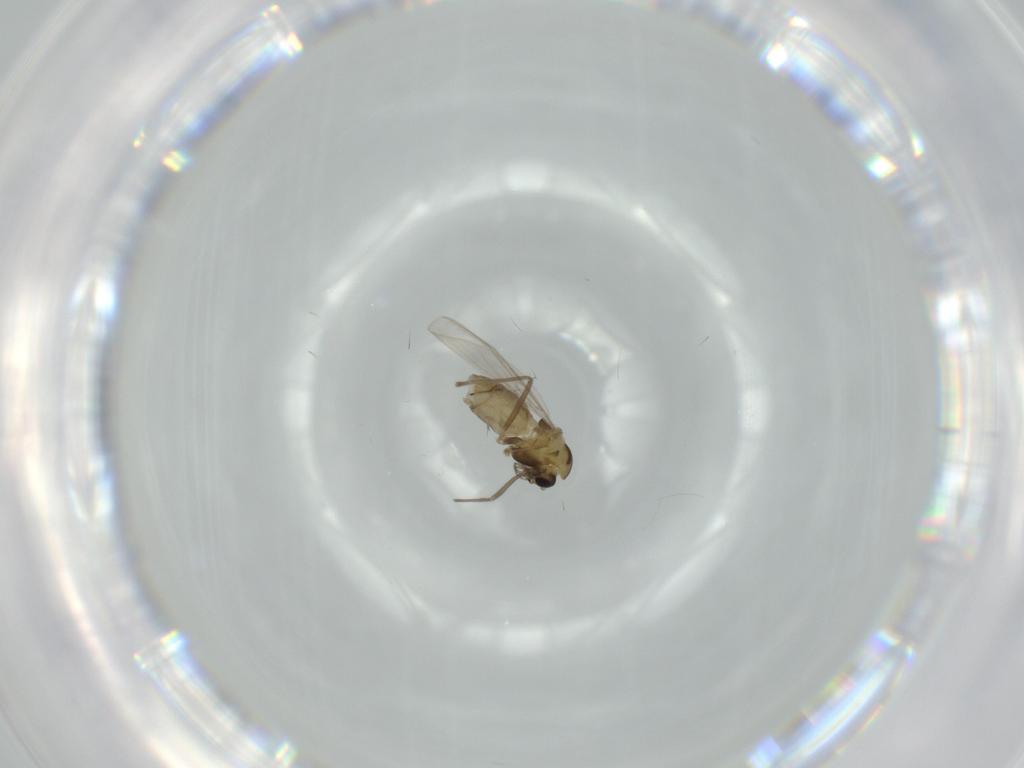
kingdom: Animalia
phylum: Arthropoda
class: Insecta
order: Diptera
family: Chironomidae
